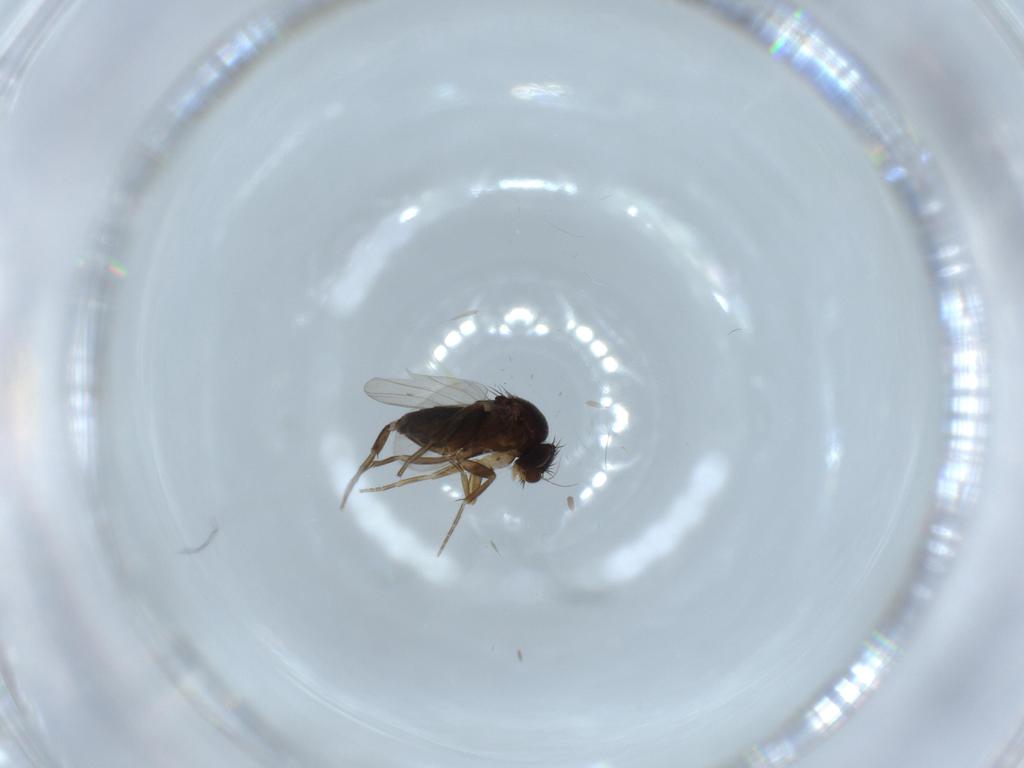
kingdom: Animalia
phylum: Arthropoda
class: Insecta
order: Diptera
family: Phoridae
